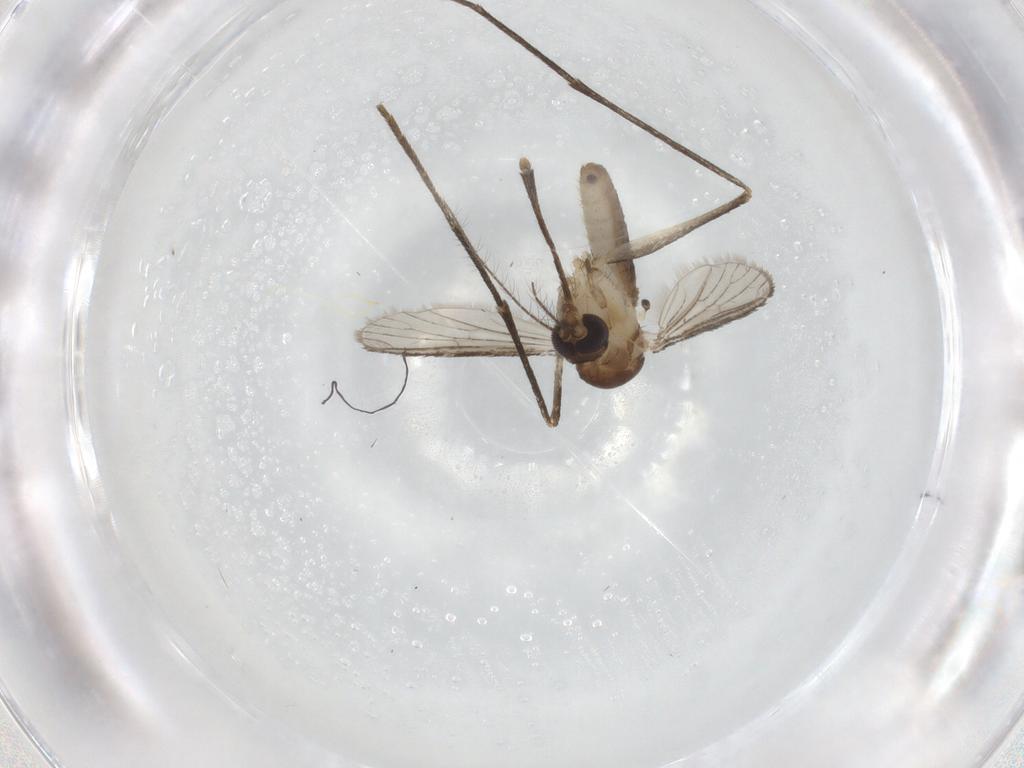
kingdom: Animalia
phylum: Arthropoda
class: Insecta
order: Diptera
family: Culicidae
